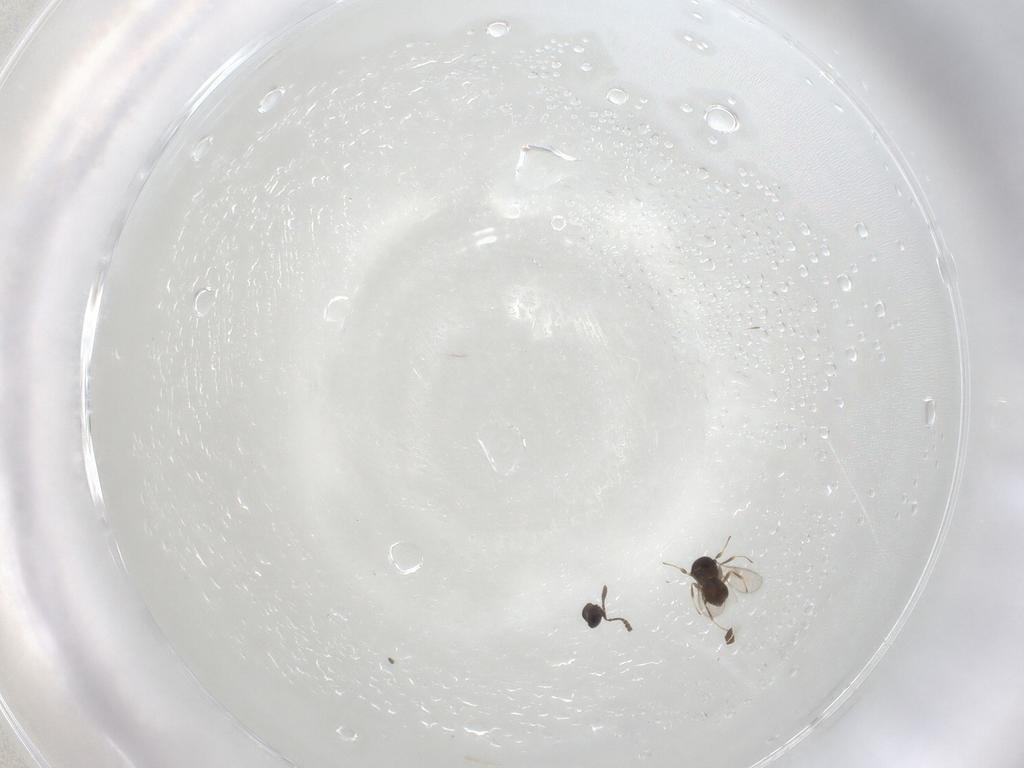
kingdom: Animalia
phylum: Arthropoda
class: Insecta
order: Hymenoptera
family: Scelionidae
